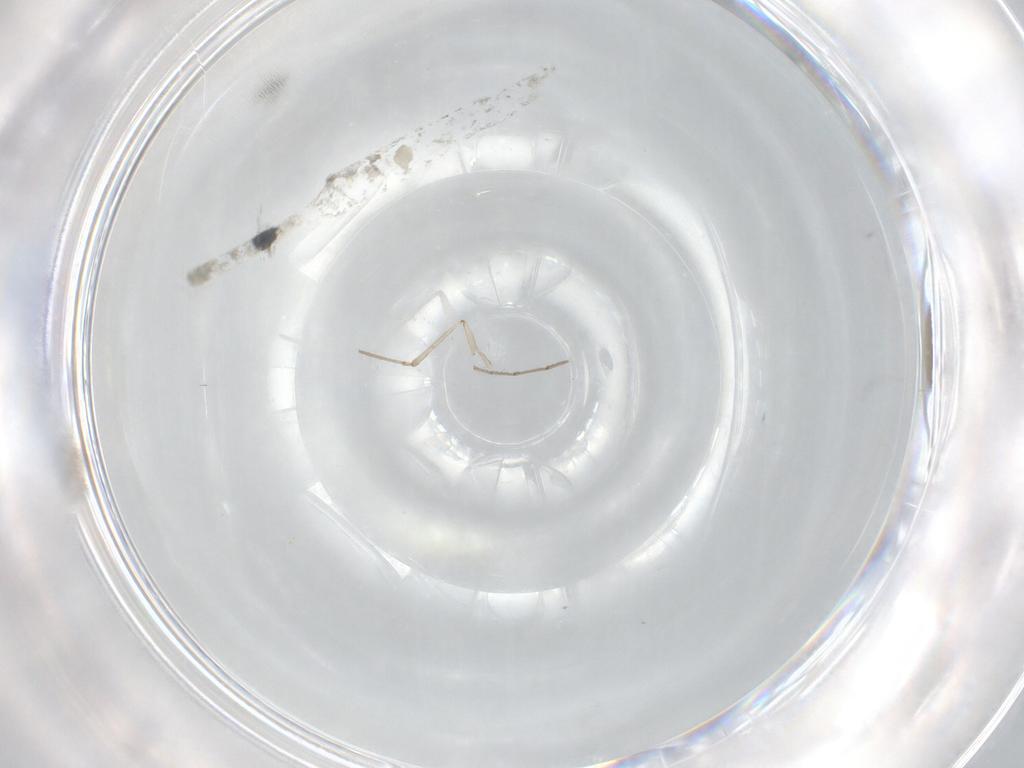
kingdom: Animalia
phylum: Arthropoda
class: Insecta
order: Diptera
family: Cecidomyiidae
